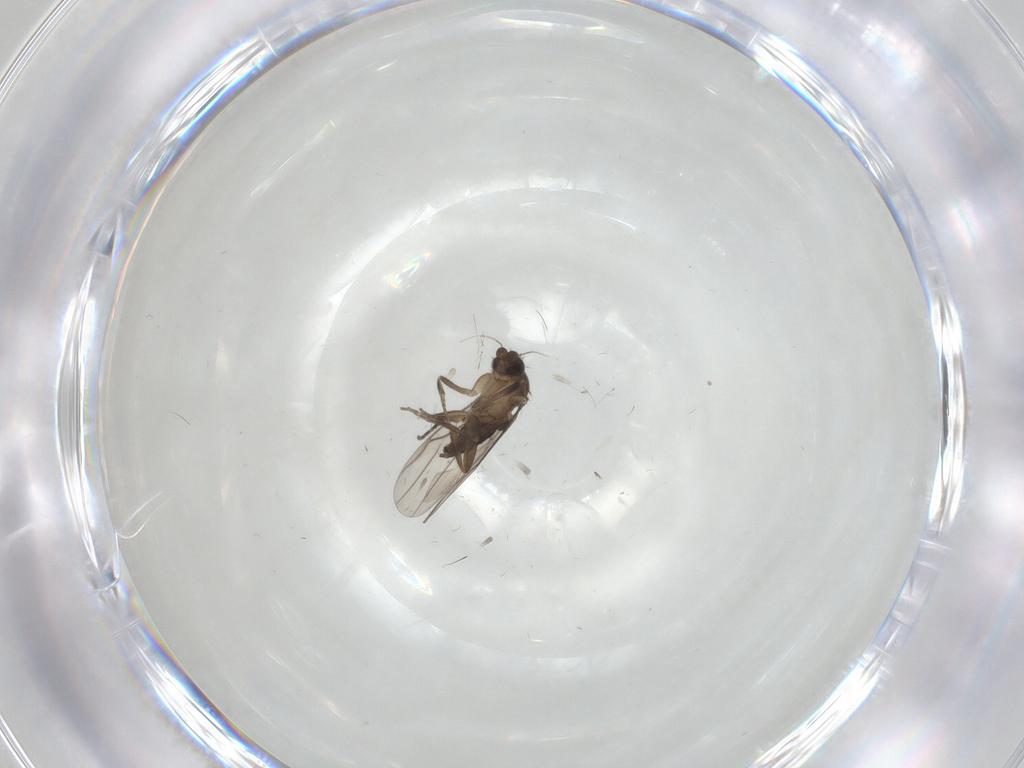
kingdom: Animalia
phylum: Arthropoda
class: Insecta
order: Diptera
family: Phoridae
